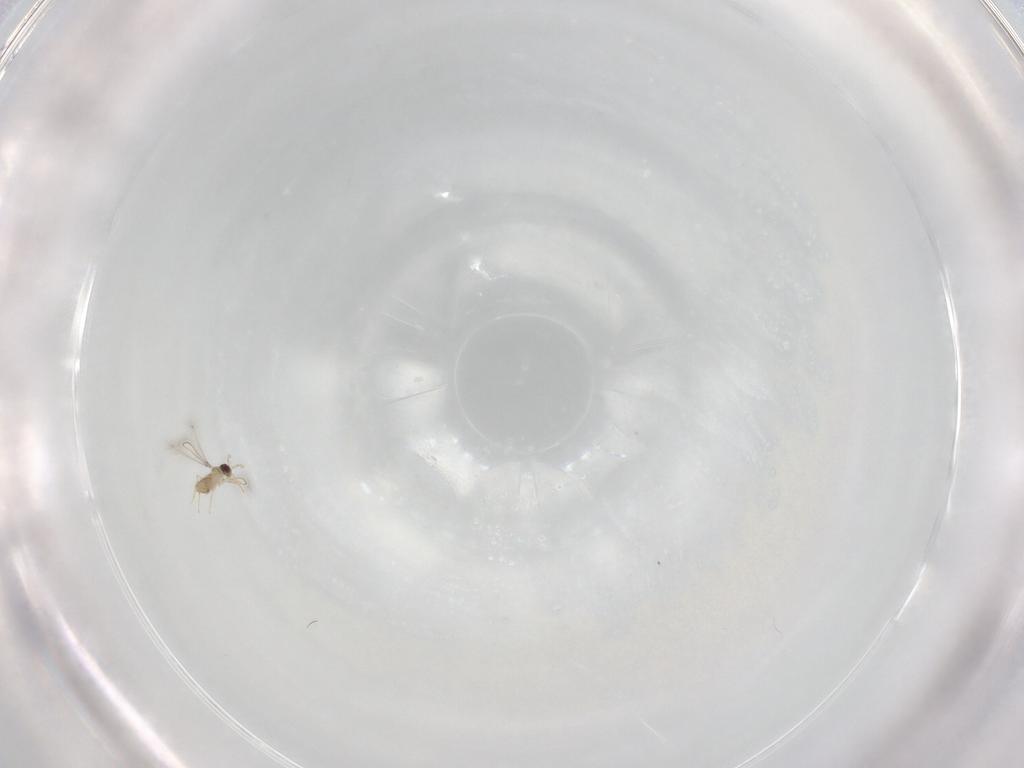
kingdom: Animalia
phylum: Arthropoda
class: Insecta
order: Hymenoptera
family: Mymaridae
